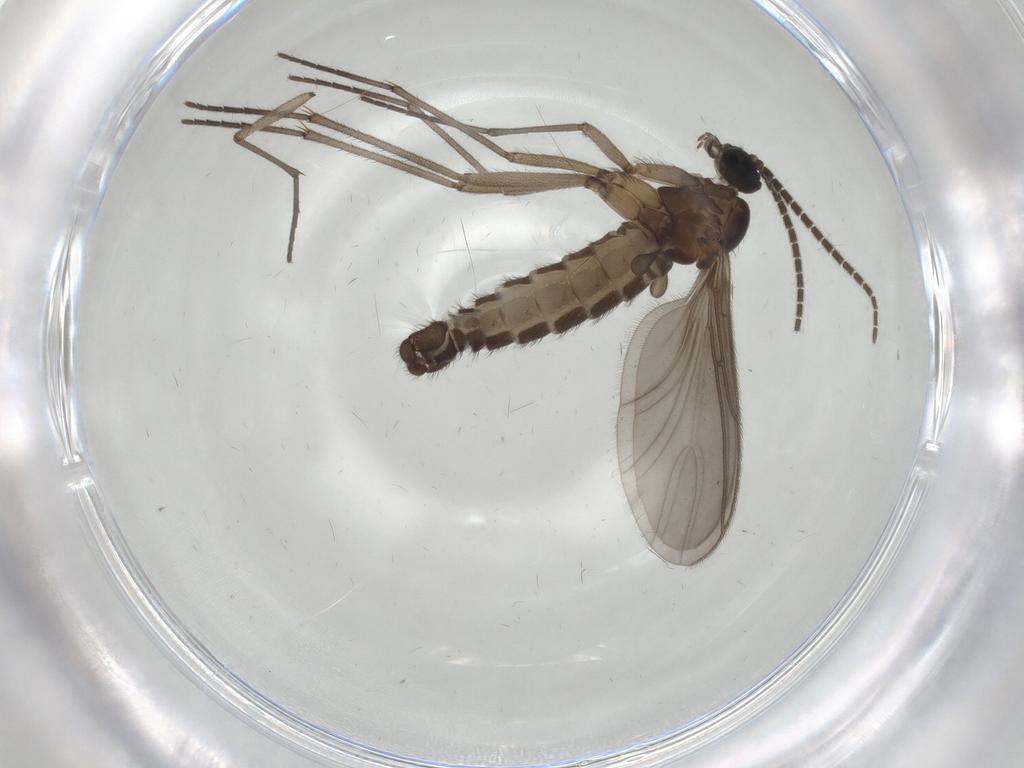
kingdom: Animalia
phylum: Arthropoda
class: Insecta
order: Diptera
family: Sciaridae
